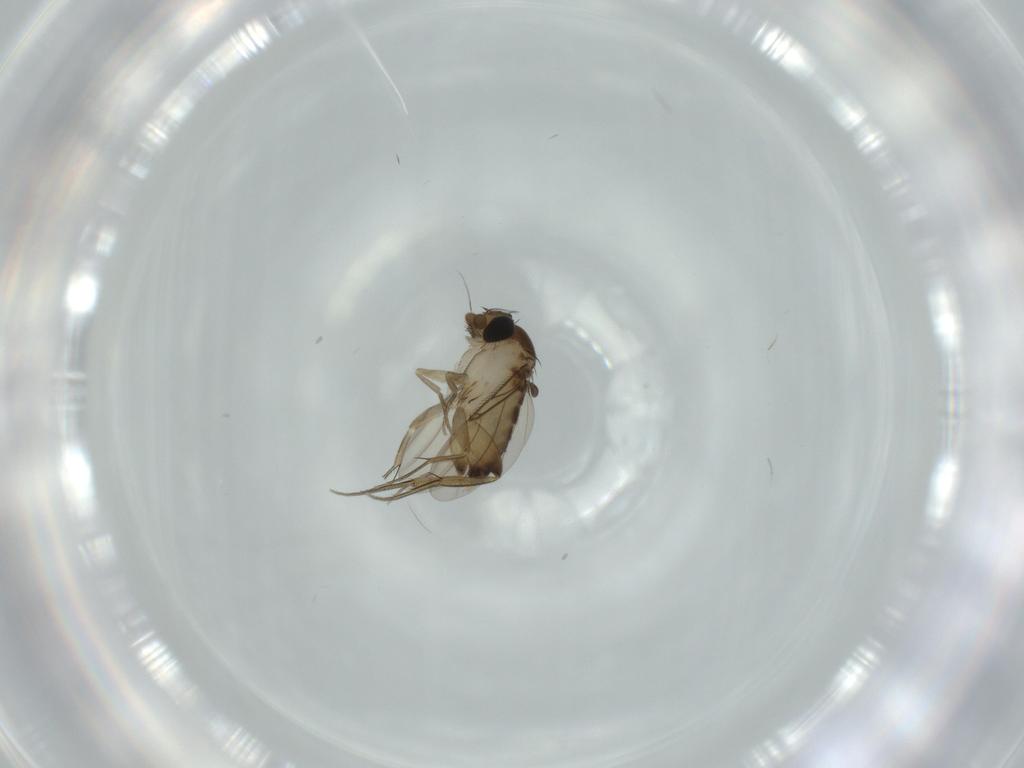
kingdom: Animalia
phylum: Arthropoda
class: Insecta
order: Diptera
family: Phoridae
